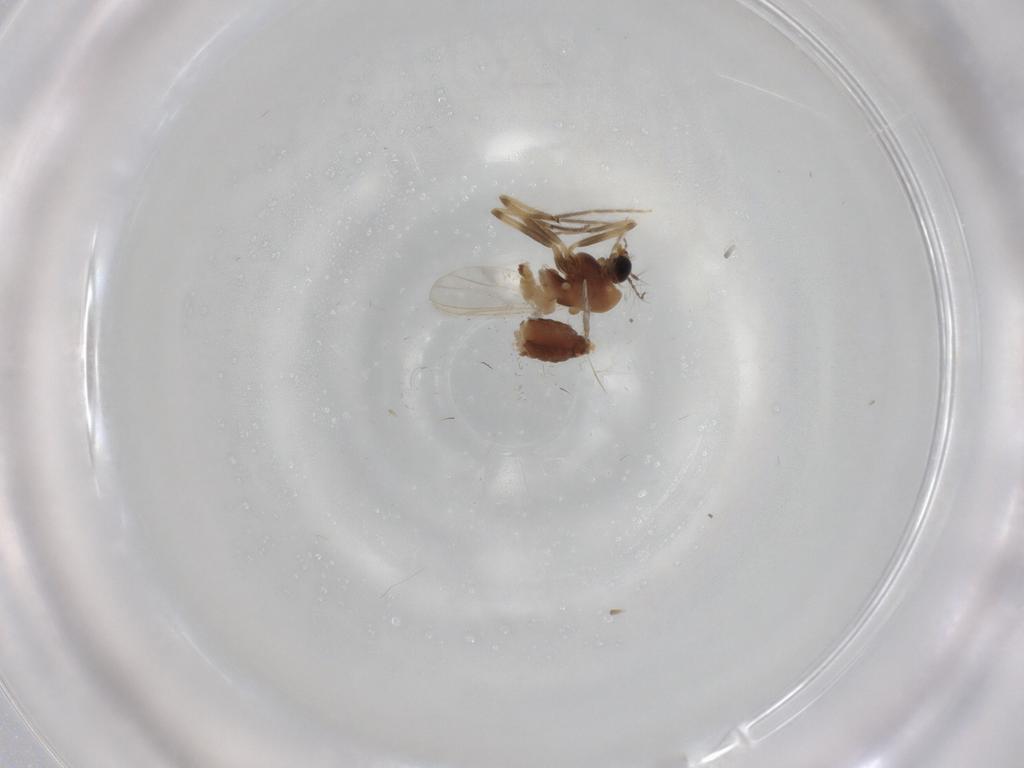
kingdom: Animalia
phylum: Arthropoda
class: Insecta
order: Diptera
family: Chironomidae
